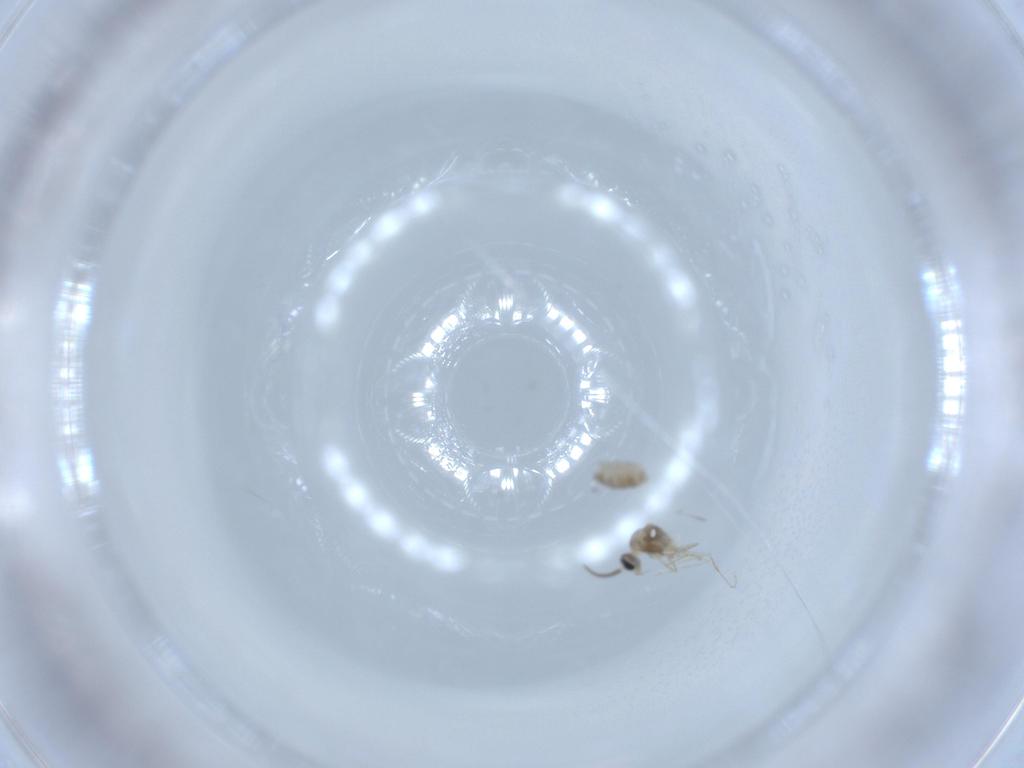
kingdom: Animalia
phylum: Arthropoda
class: Insecta
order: Diptera
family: Cecidomyiidae
